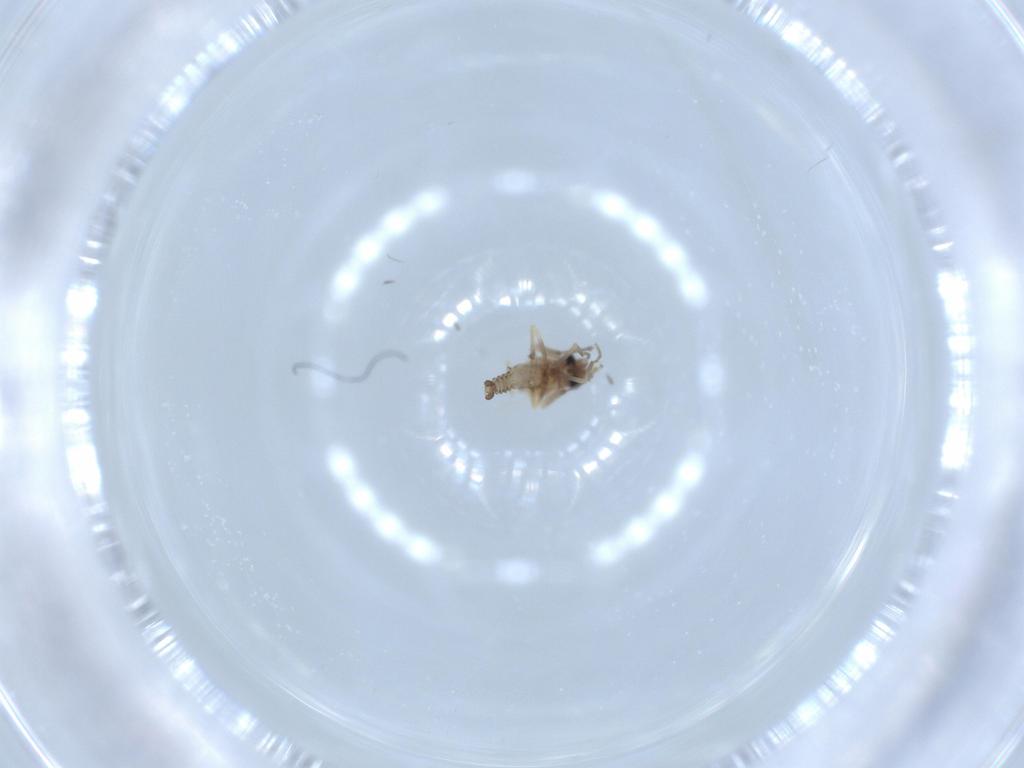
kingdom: Animalia
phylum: Arthropoda
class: Insecta
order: Diptera
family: Ceratopogonidae
